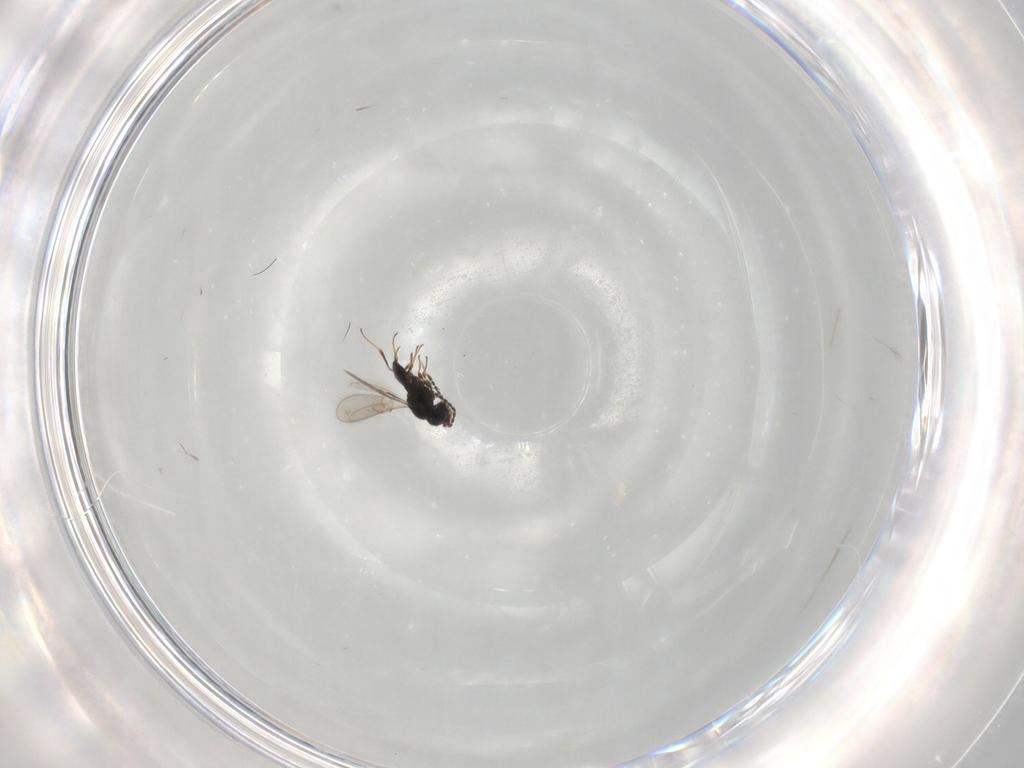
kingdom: Animalia
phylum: Arthropoda
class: Insecta
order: Hymenoptera
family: Scelionidae
